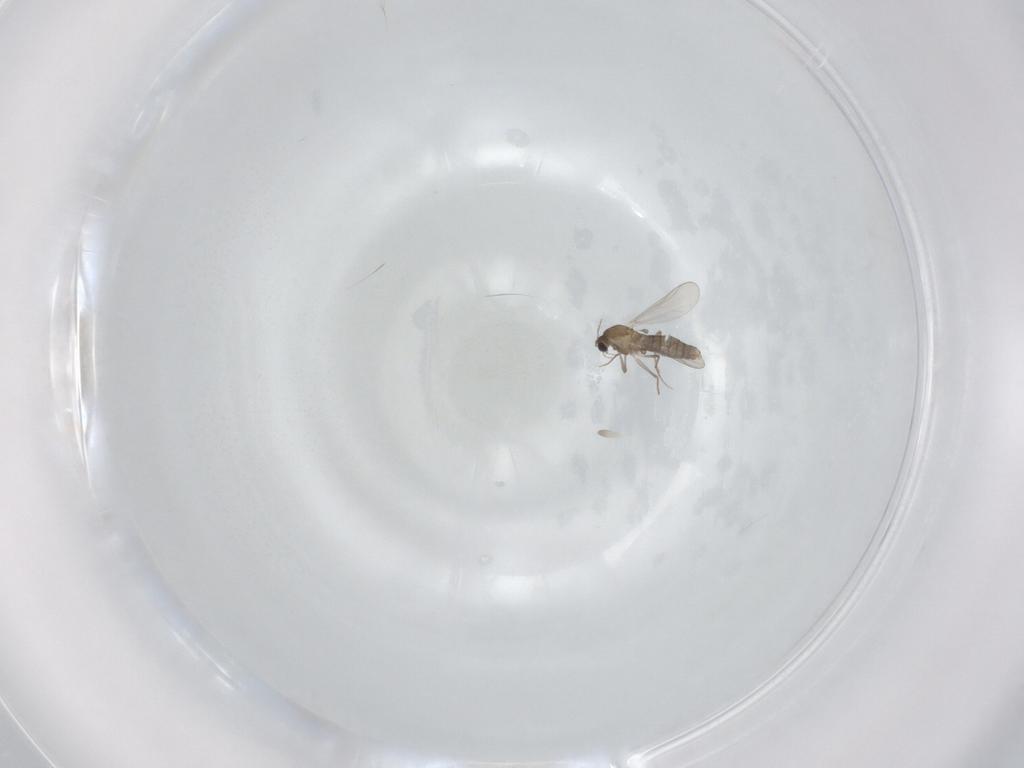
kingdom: Animalia
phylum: Arthropoda
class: Insecta
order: Diptera
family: Chironomidae
